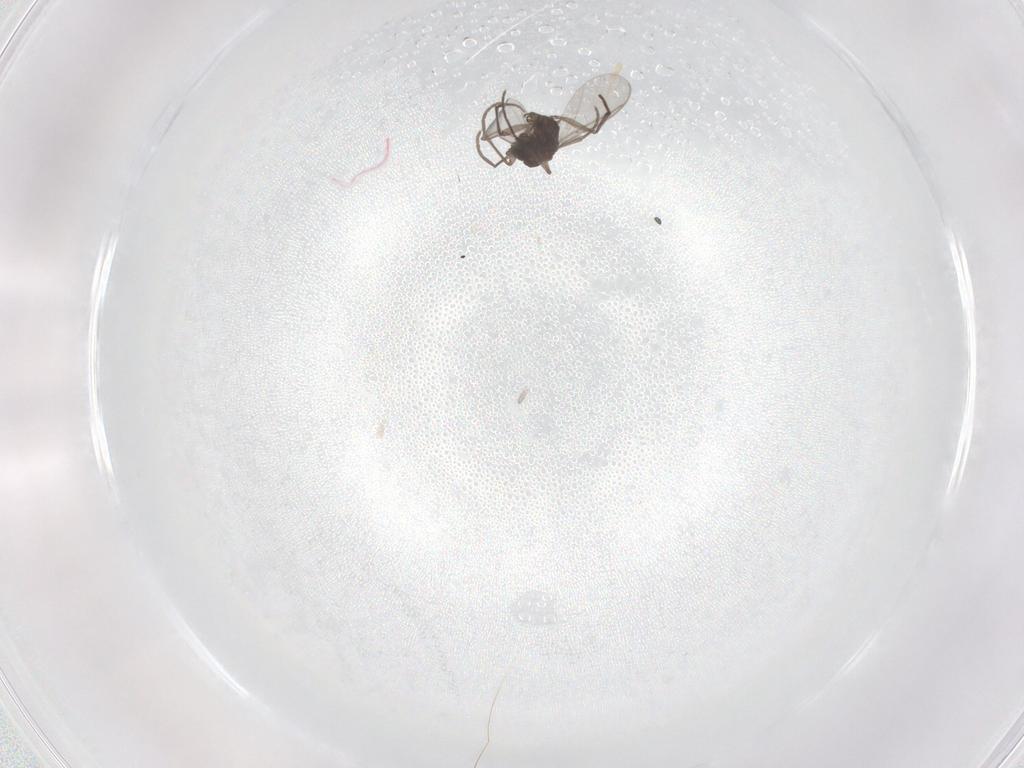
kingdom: Animalia
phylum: Arthropoda
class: Insecta
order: Diptera
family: Sciaridae
